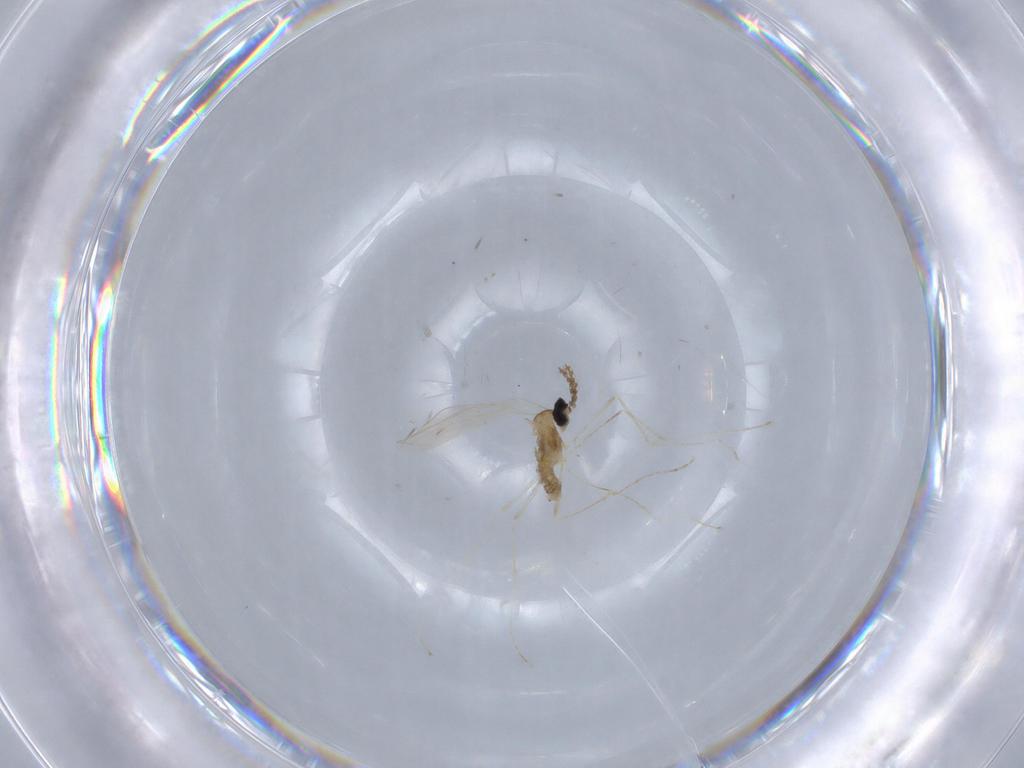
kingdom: Animalia
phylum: Arthropoda
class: Insecta
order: Diptera
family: Cecidomyiidae
